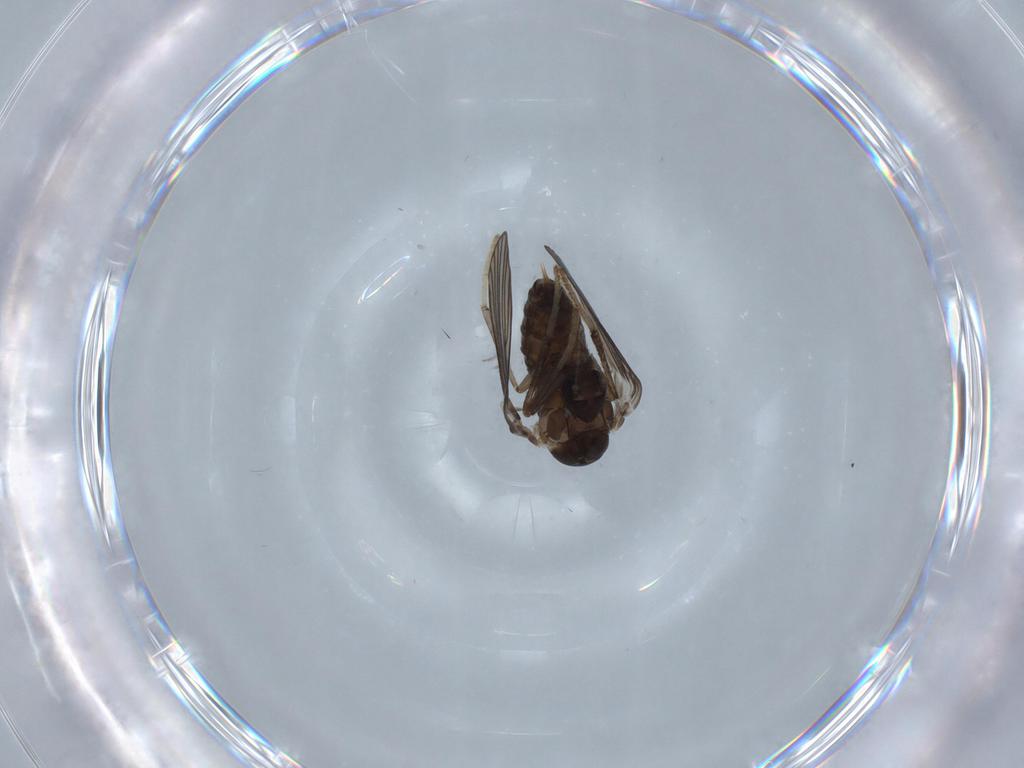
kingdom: Animalia
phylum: Arthropoda
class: Insecta
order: Diptera
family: Psychodidae
